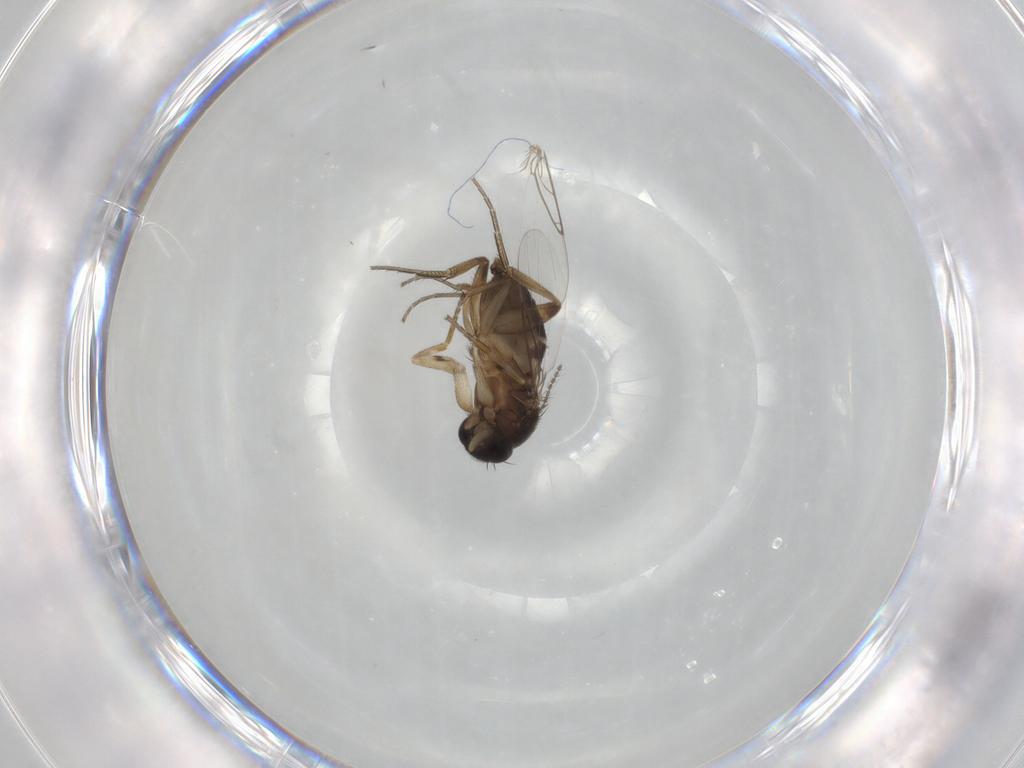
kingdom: Animalia
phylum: Arthropoda
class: Insecta
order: Diptera
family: Phoridae
